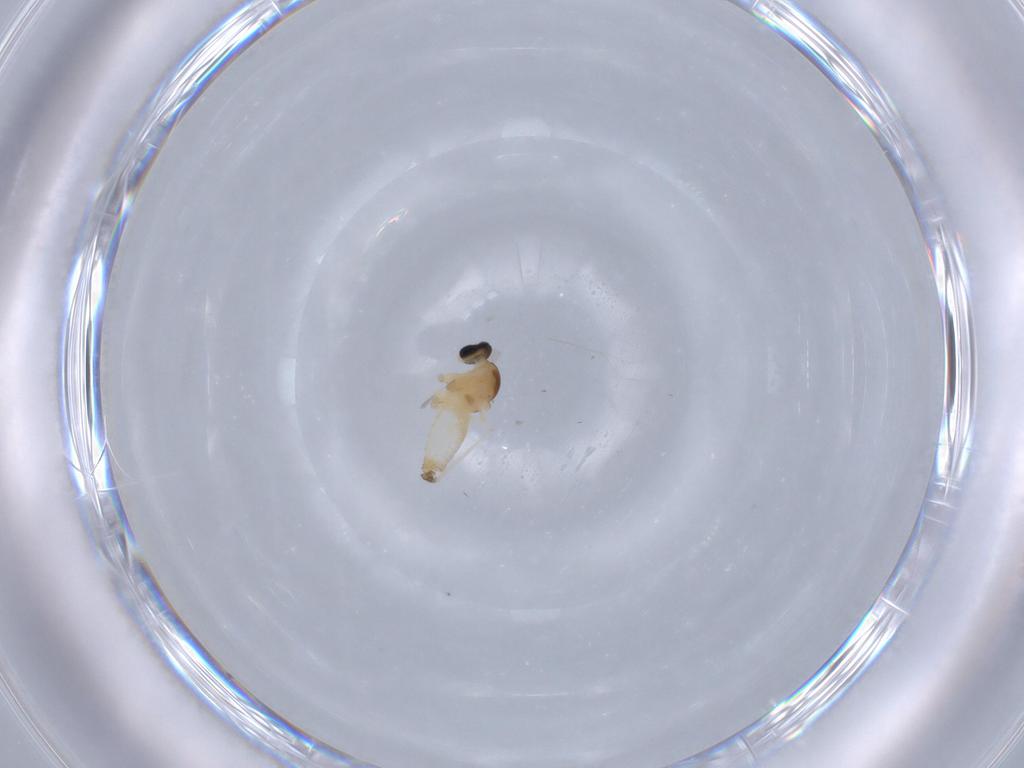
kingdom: Animalia
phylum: Arthropoda
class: Insecta
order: Diptera
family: Cecidomyiidae
